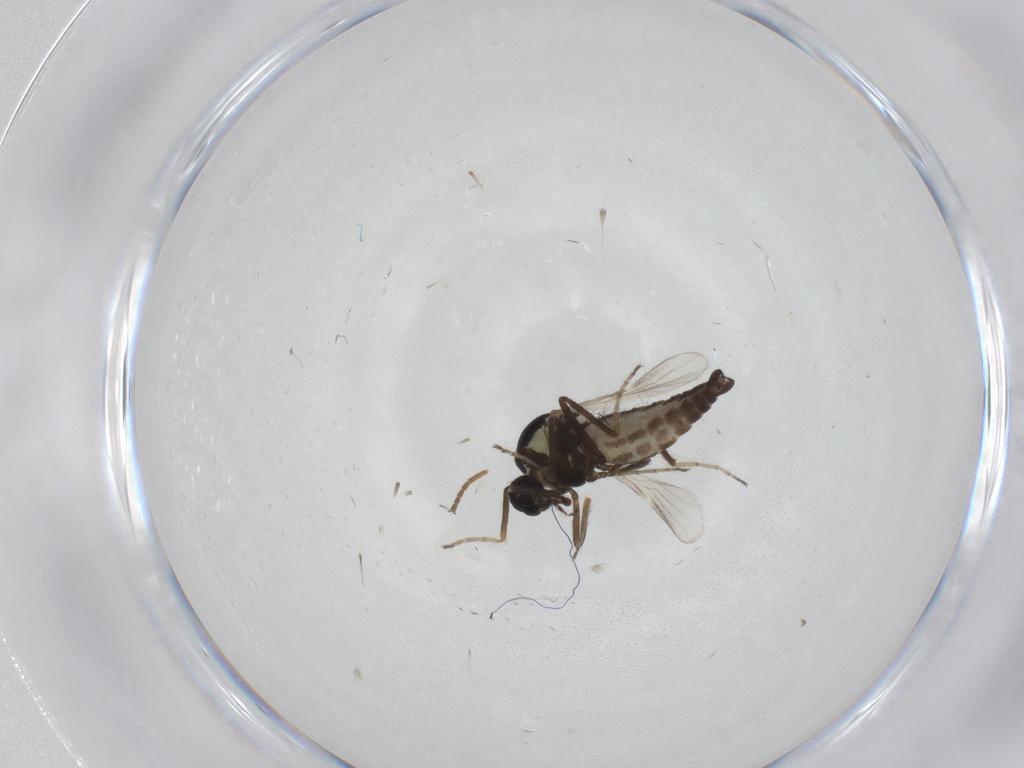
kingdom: Animalia
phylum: Arthropoda
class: Insecta
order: Diptera
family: Ceratopogonidae
